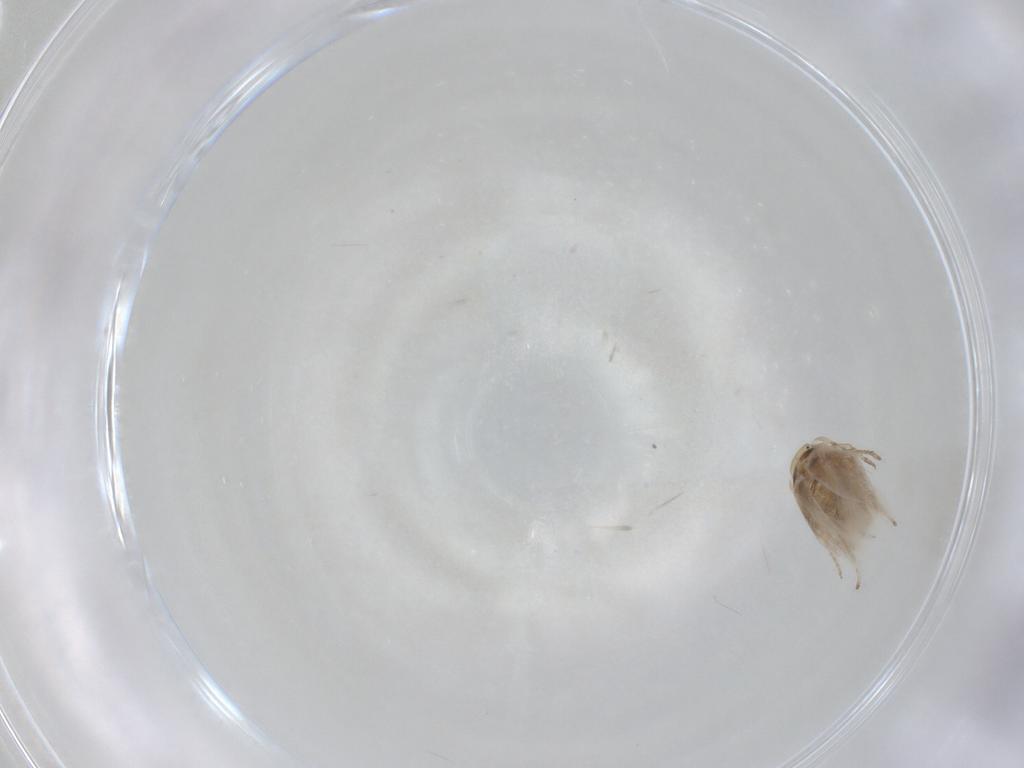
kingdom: Animalia
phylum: Arthropoda
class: Insecta
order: Lepidoptera
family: Depressariidae
